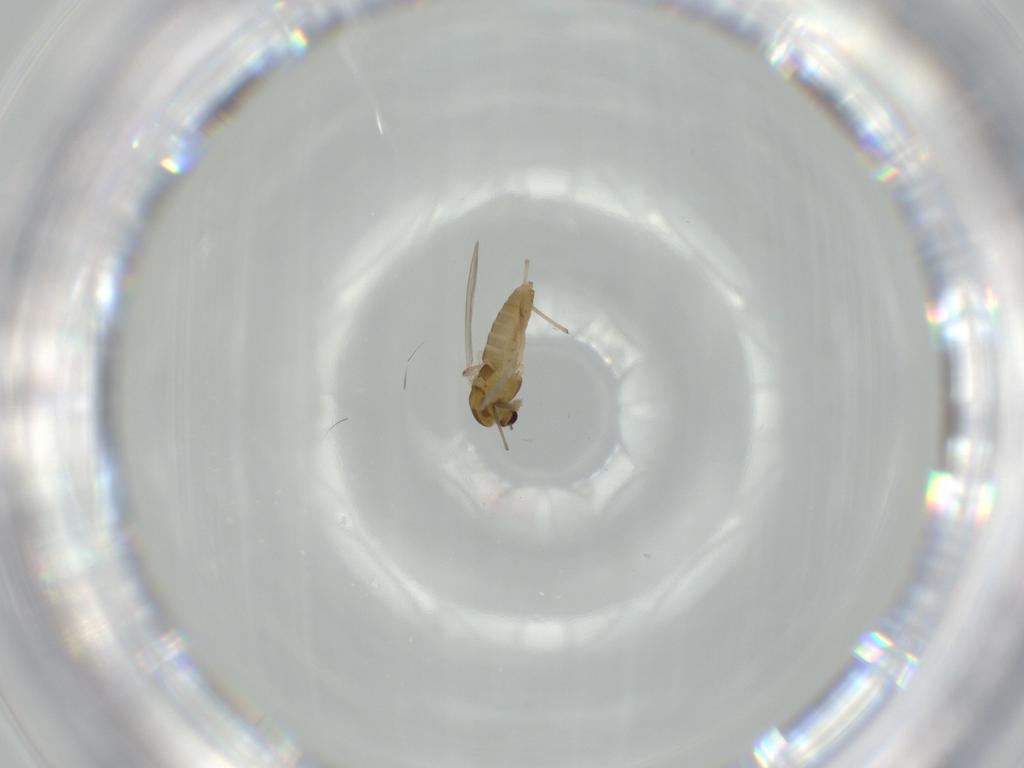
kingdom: Animalia
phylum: Arthropoda
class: Insecta
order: Diptera
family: Chironomidae
